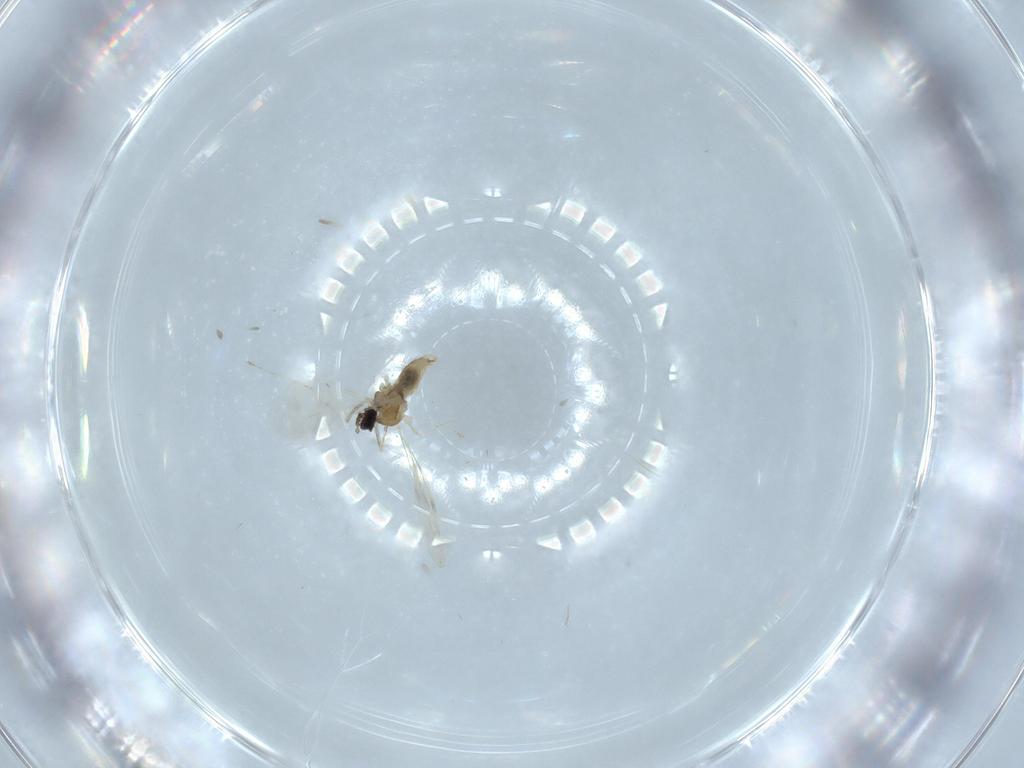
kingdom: Animalia
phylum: Arthropoda
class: Insecta
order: Diptera
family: Cecidomyiidae
